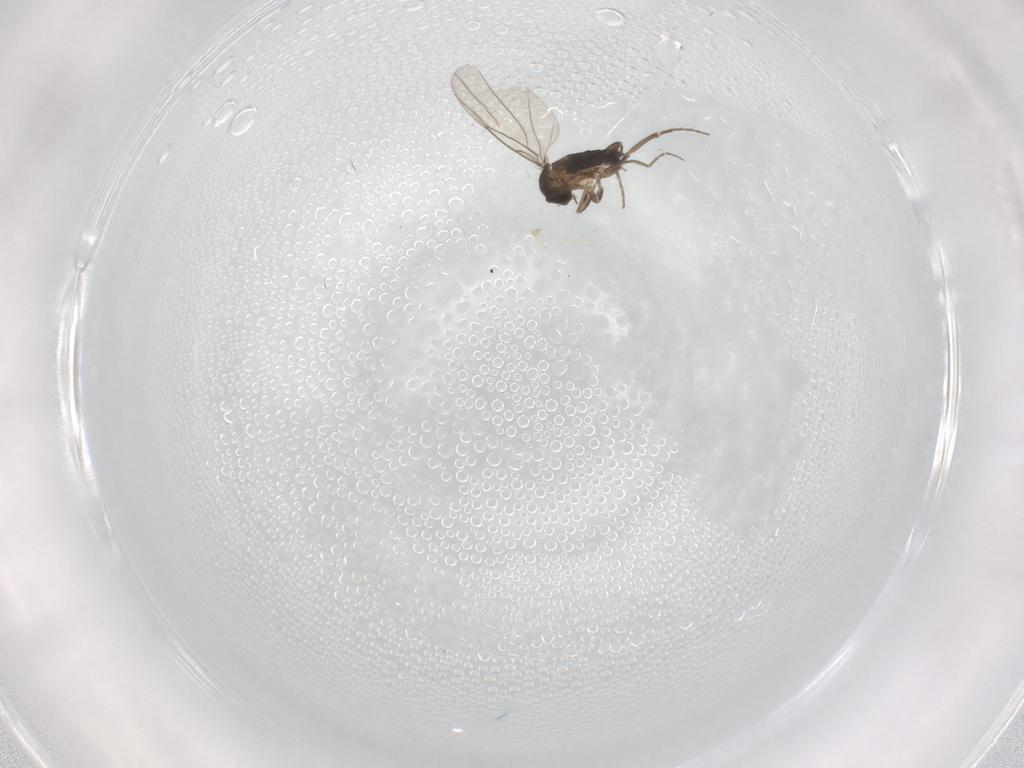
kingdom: Animalia
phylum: Arthropoda
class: Insecta
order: Diptera
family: Phoridae
